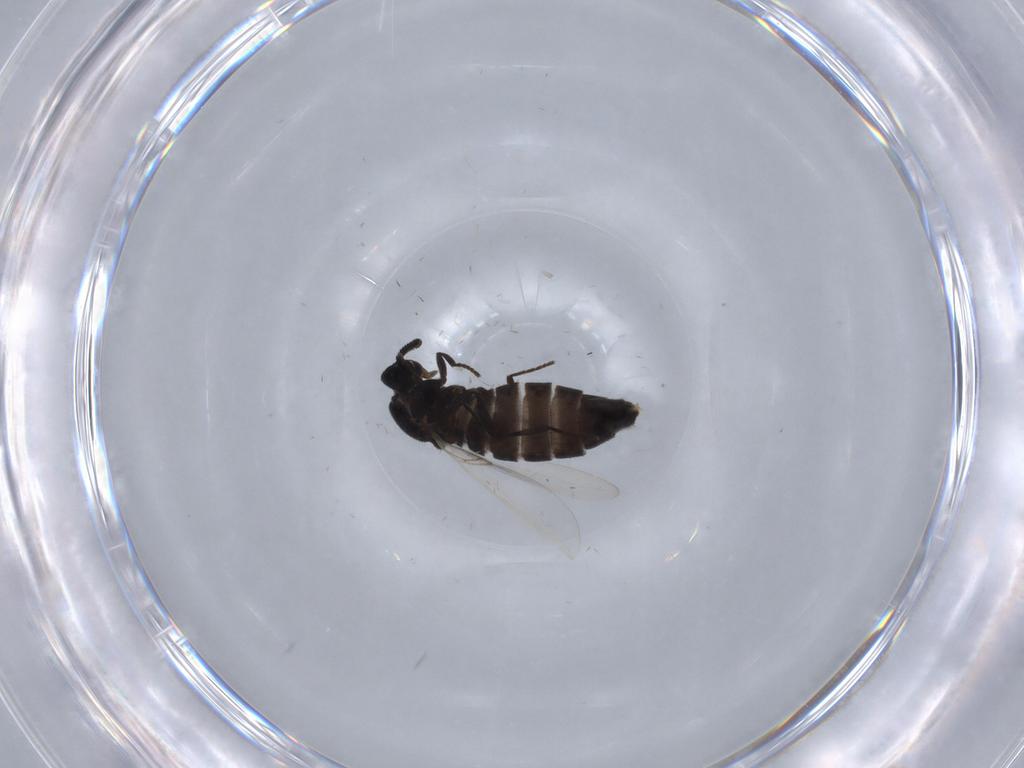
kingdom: Animalia
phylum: Arthropoda
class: Insecta
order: Diptera
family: Scatopsidae
